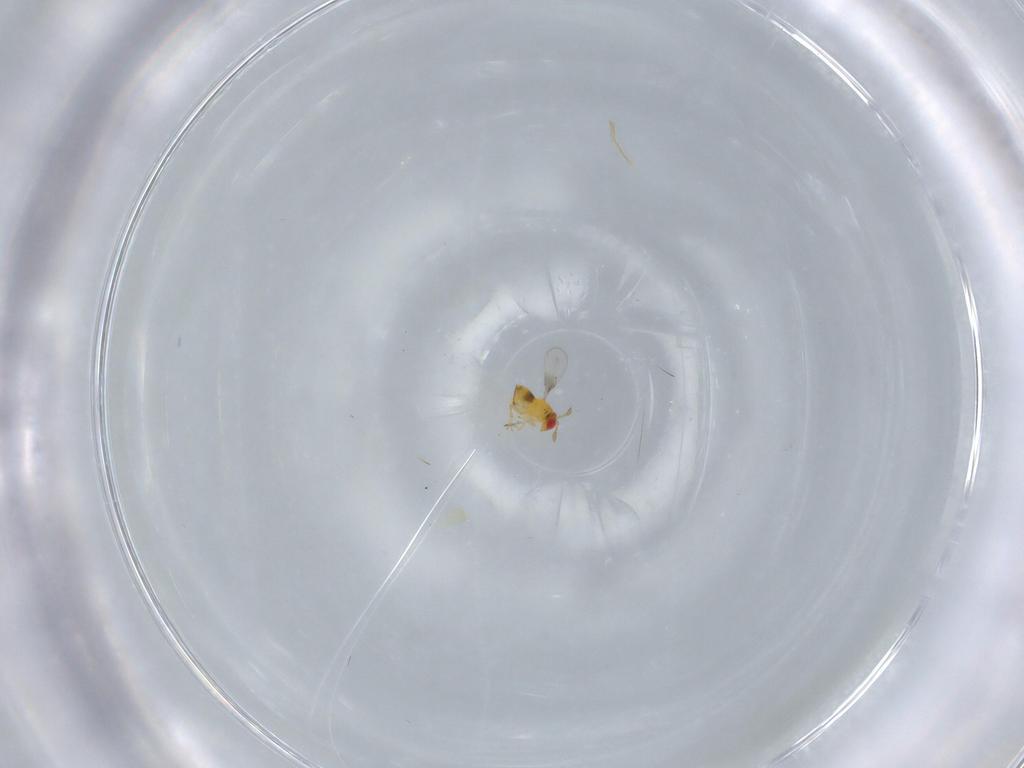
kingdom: Animalia
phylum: Arthropoda
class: Insecta
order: Hymenoptera
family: Trichogrammatidae
